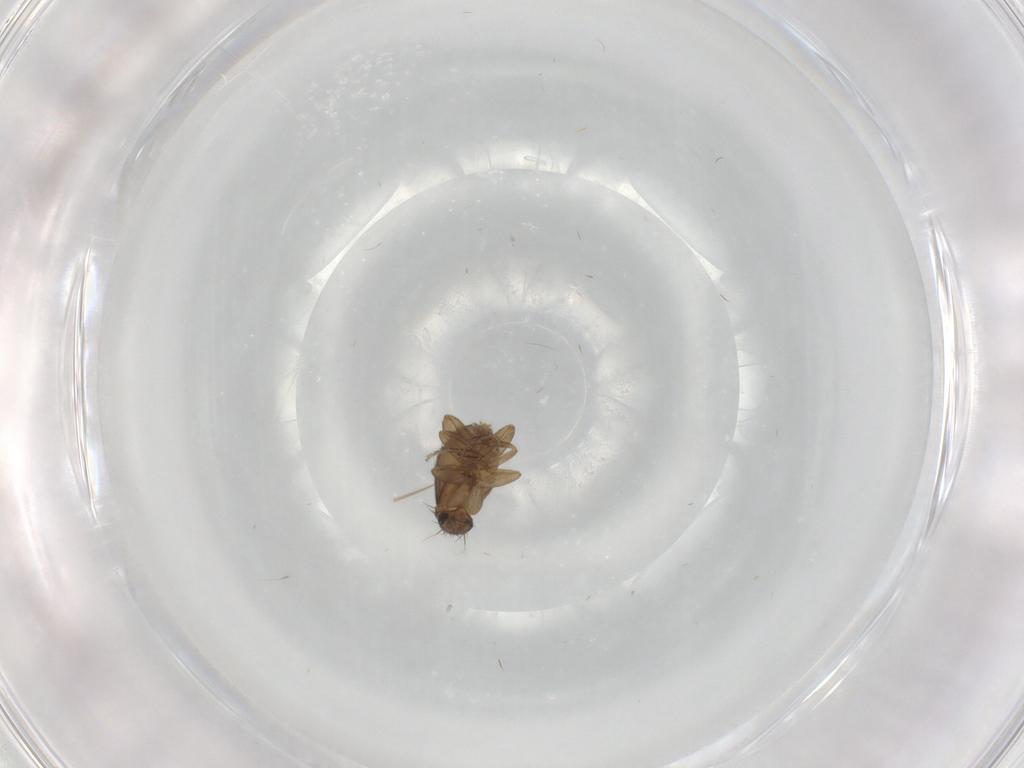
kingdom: Animalia
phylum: Arthropoda
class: Insecta
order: Diptera
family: Phoridae
